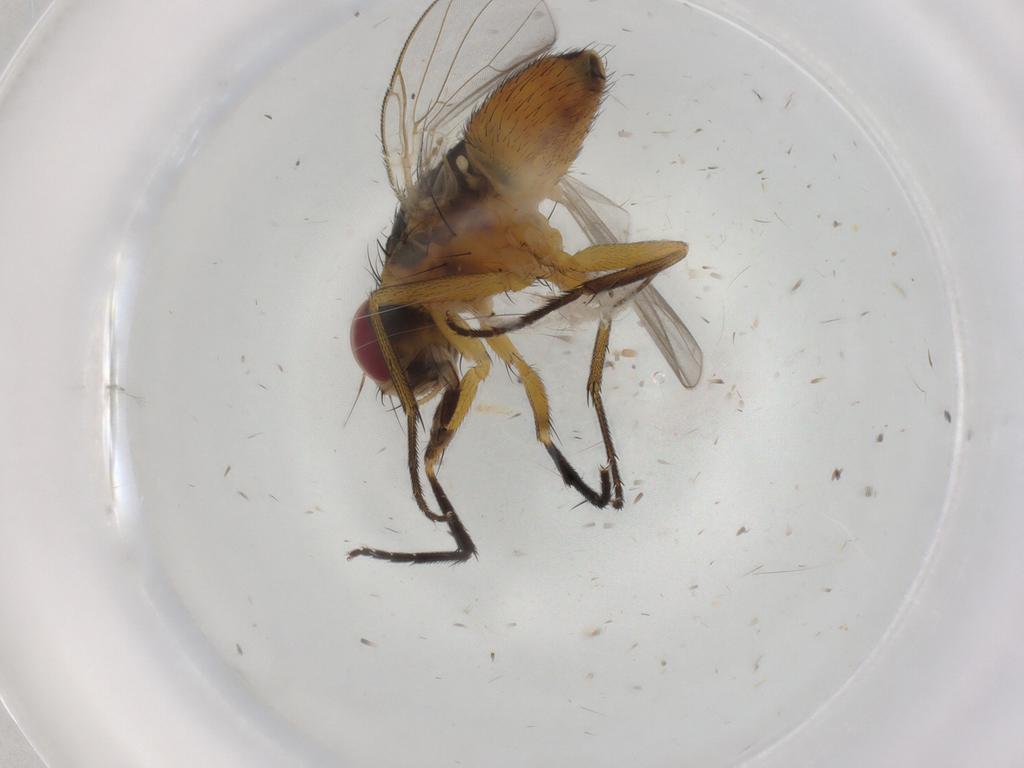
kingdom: Animalia
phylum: Arthropoda
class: Insecta
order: Diptera
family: Muscidae
